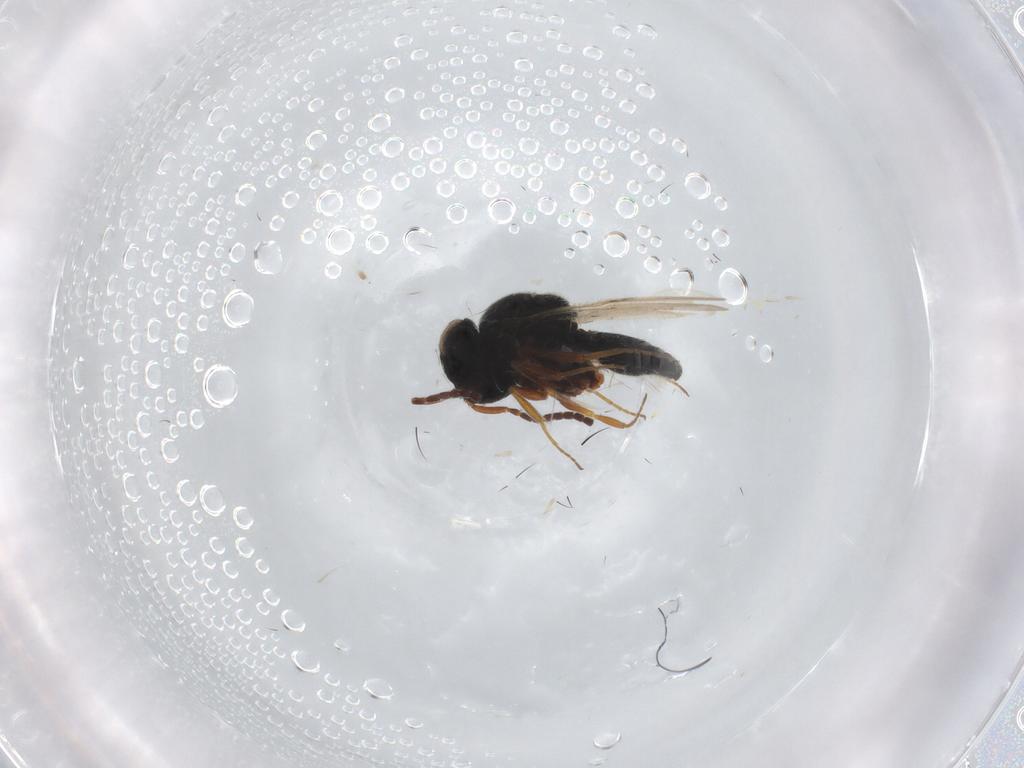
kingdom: Animalia
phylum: Arthropoda
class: Insecta
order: Hymenoptera
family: Scelionidae
